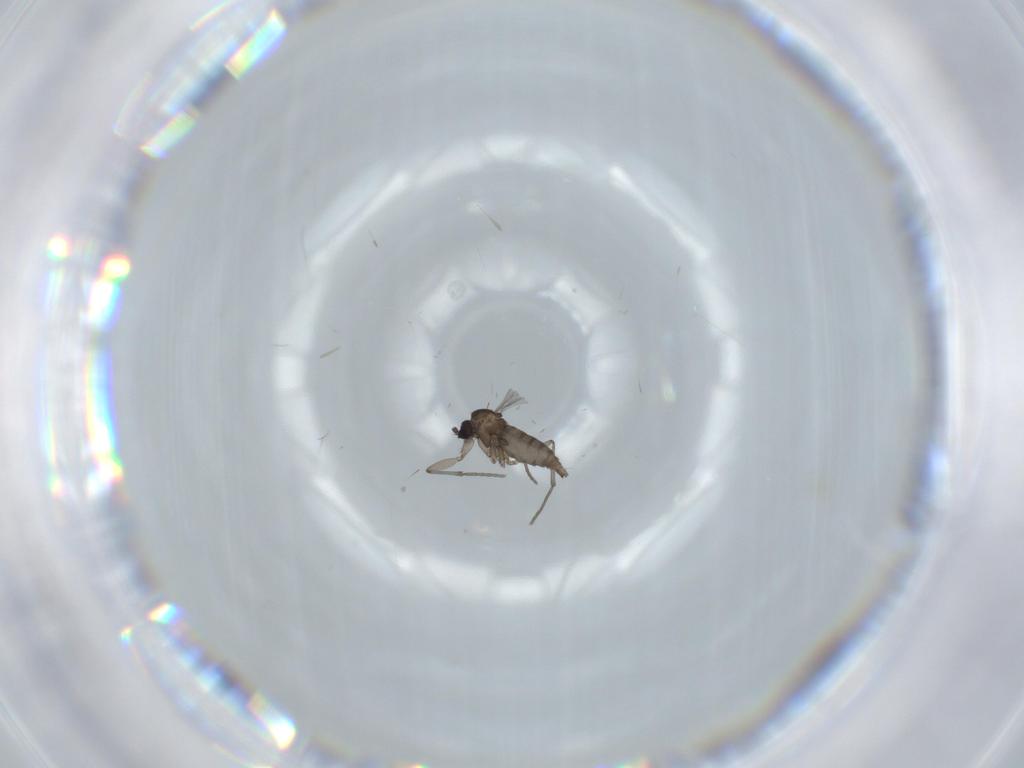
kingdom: Animalia
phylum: Arthropoda
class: Insecta
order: Diptera
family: Sciaridae
